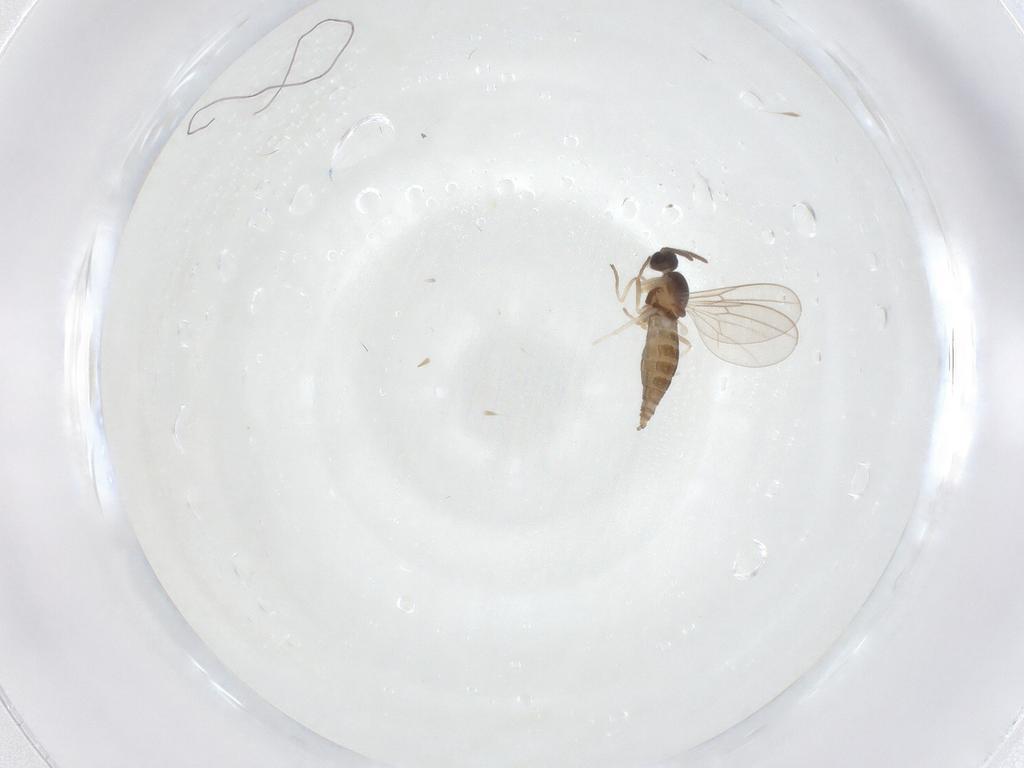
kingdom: Animalia
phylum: Arthropoda
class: Insecta
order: Diptera
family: Cecidomyiidae
